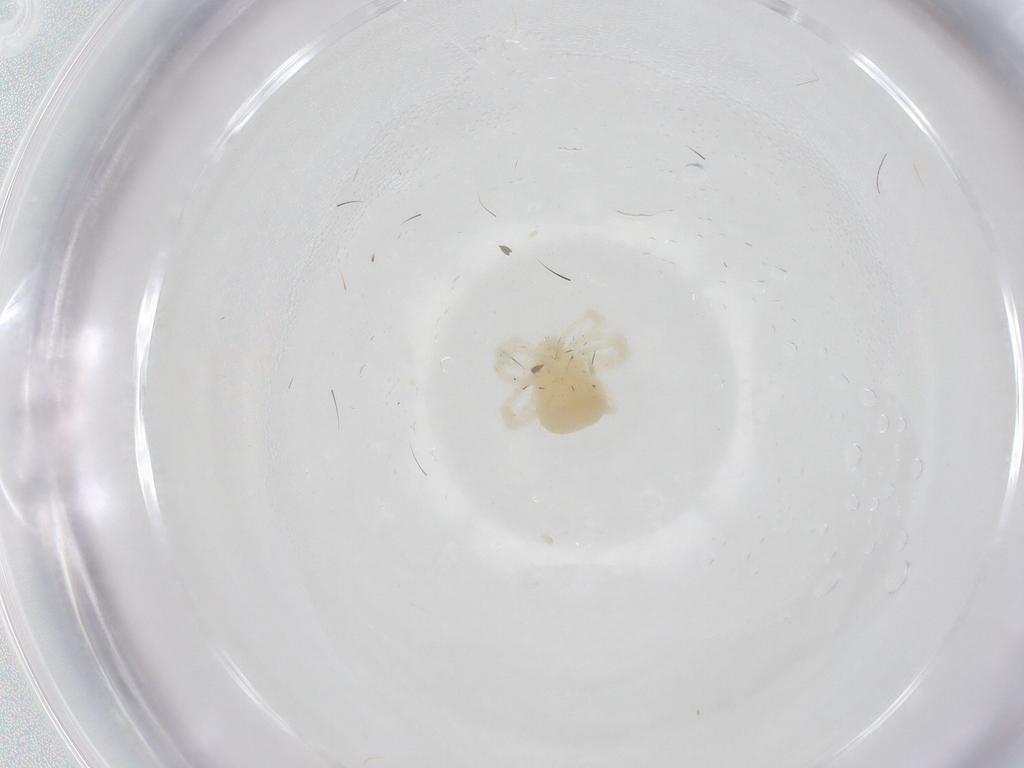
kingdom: Animalia
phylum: Arthropoda
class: Arachnida
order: Trombidiformes
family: Anystidae
